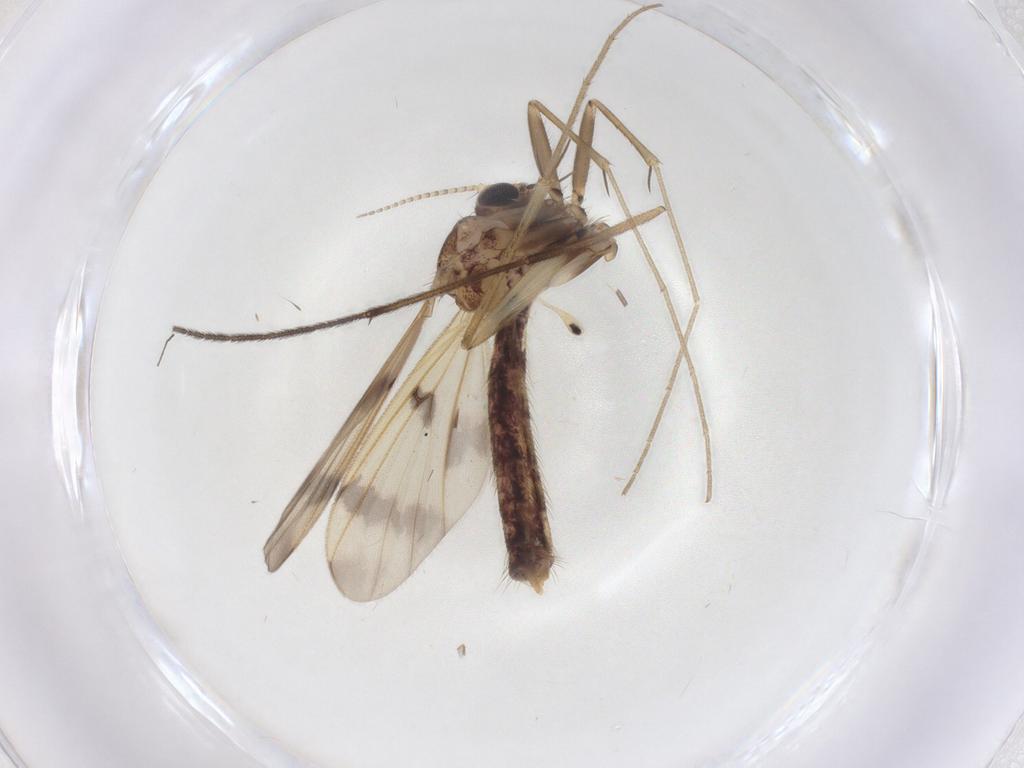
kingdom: Animalia
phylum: Arthropoda
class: Insecta
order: Diptera
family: Mycetophilidae
